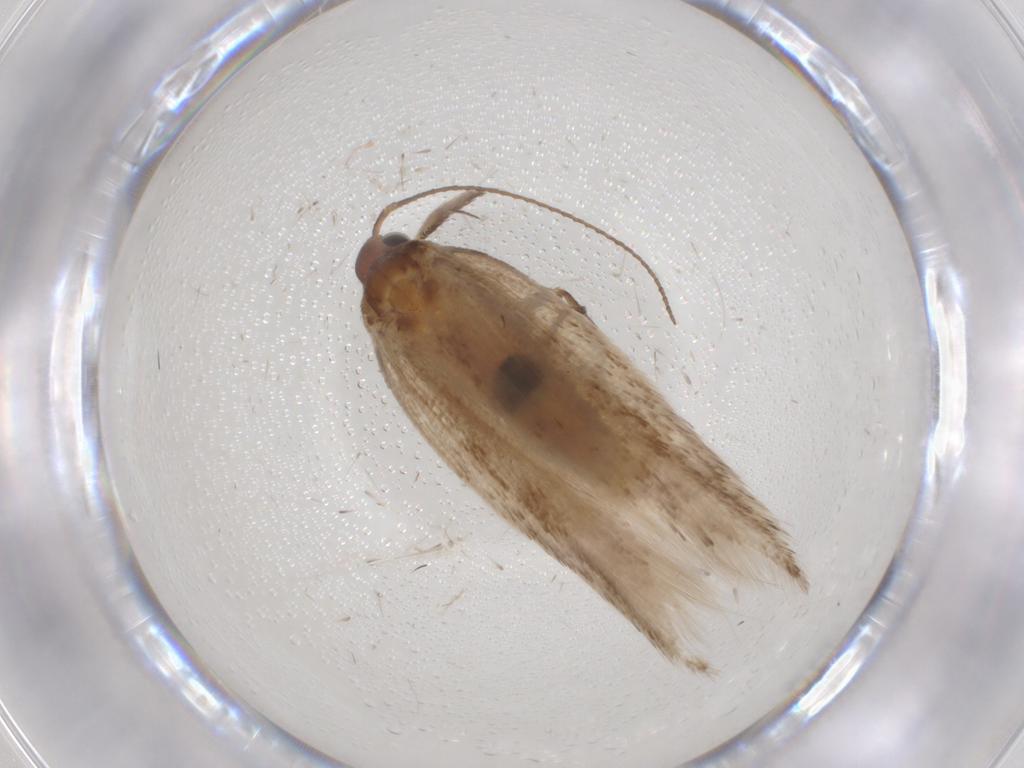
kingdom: Animalia
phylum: Arthropoda
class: Insecta
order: Lepidoptera
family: Gelechiidae
